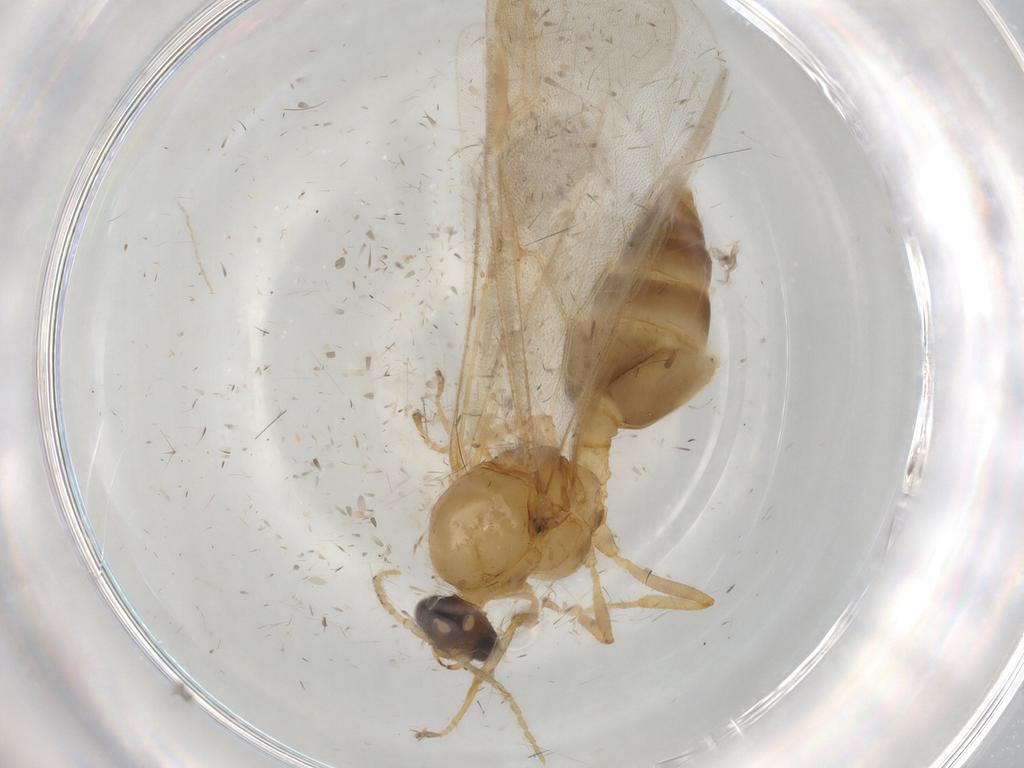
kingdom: Animalia
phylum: Arthropoda
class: Insecta
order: Hymenoptera
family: Formicidae
